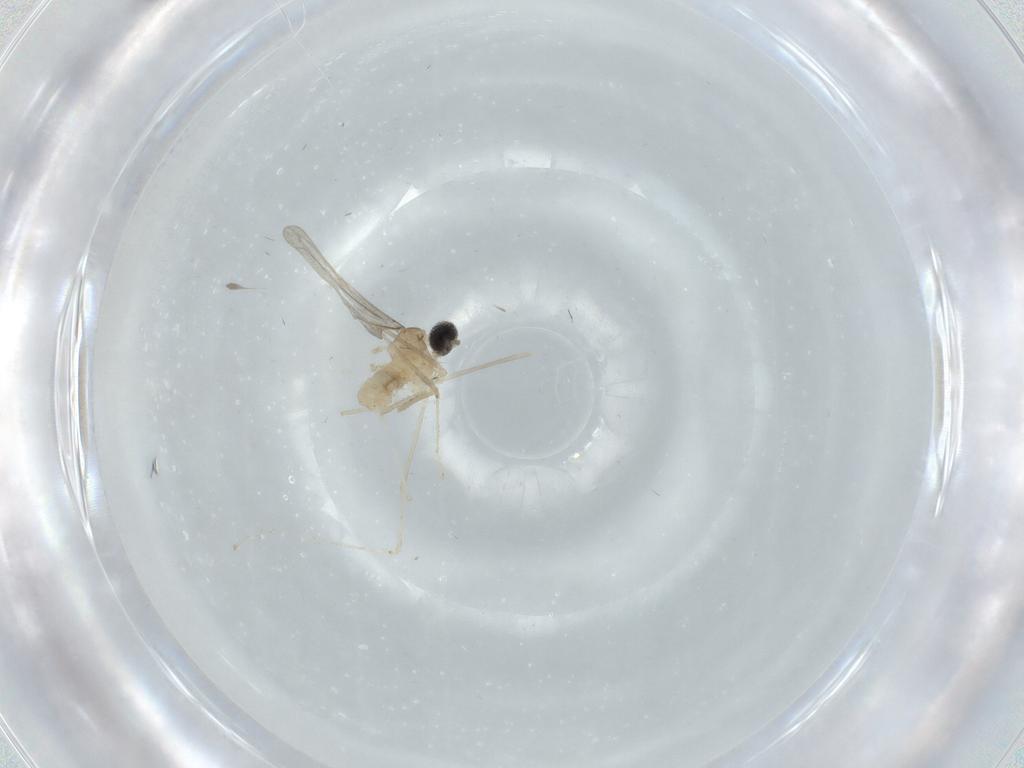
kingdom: Animalia
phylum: Arthropoda
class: Insecta
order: Diptera
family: Cecidomyiidae
